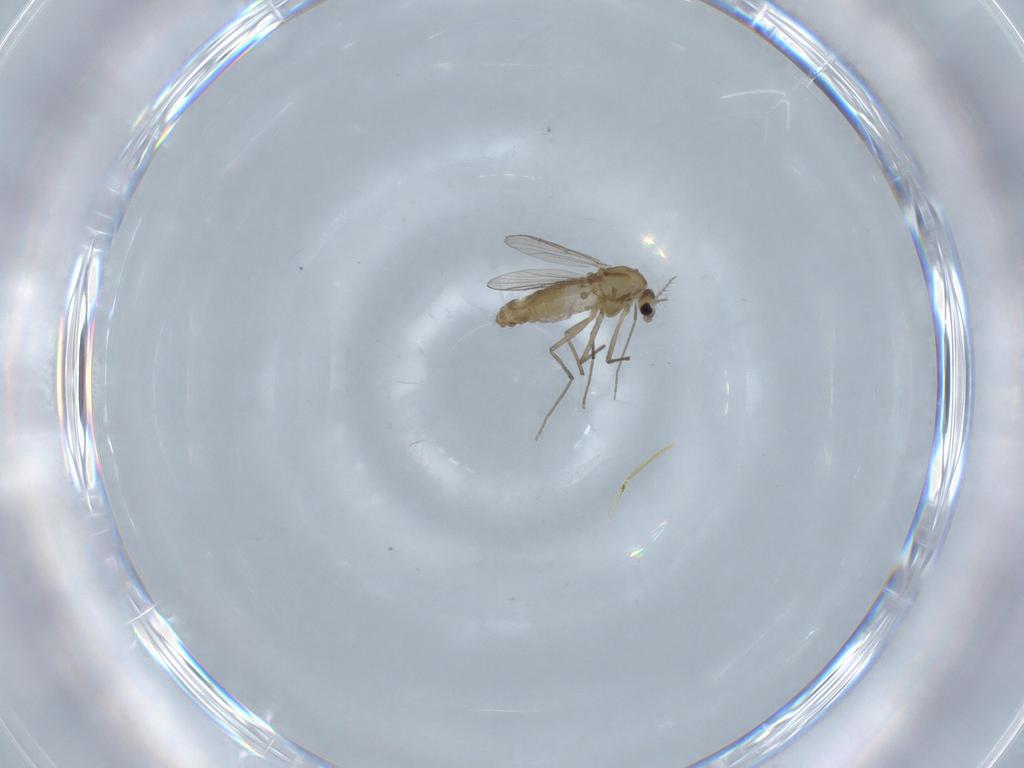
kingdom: Animalia
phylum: Arthropoda
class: Insecta
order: Diptera
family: Chironomidae
